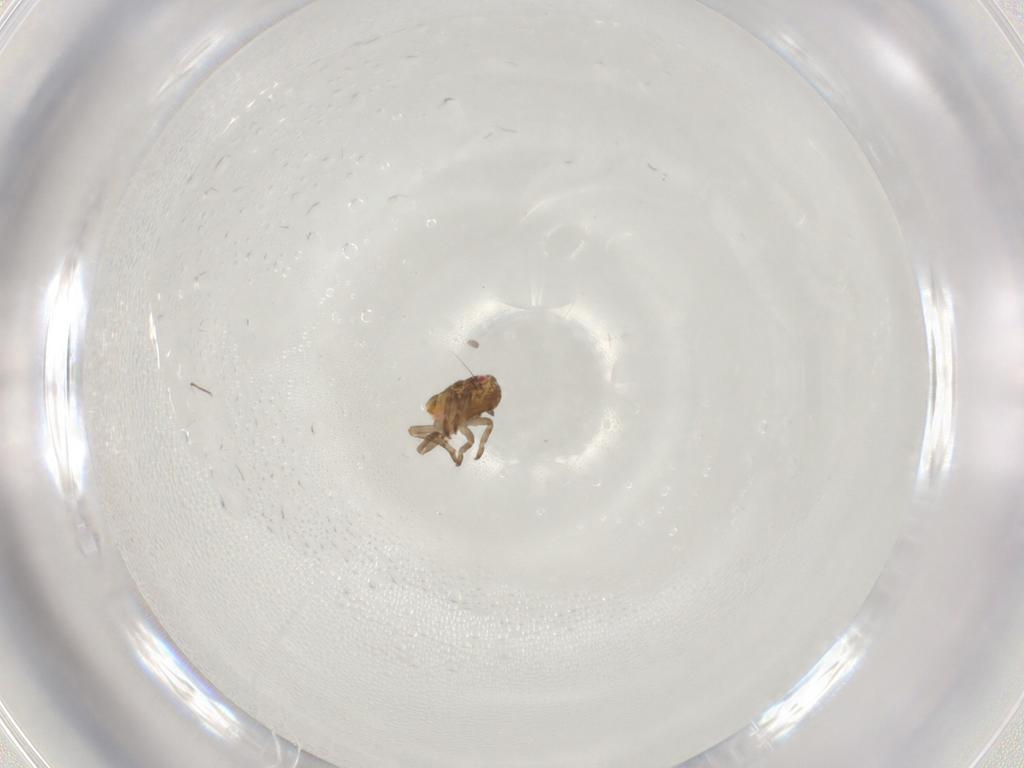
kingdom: Animalia
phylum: Arthropoda
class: Insecta
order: Hemiptera
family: Ricaniidae
